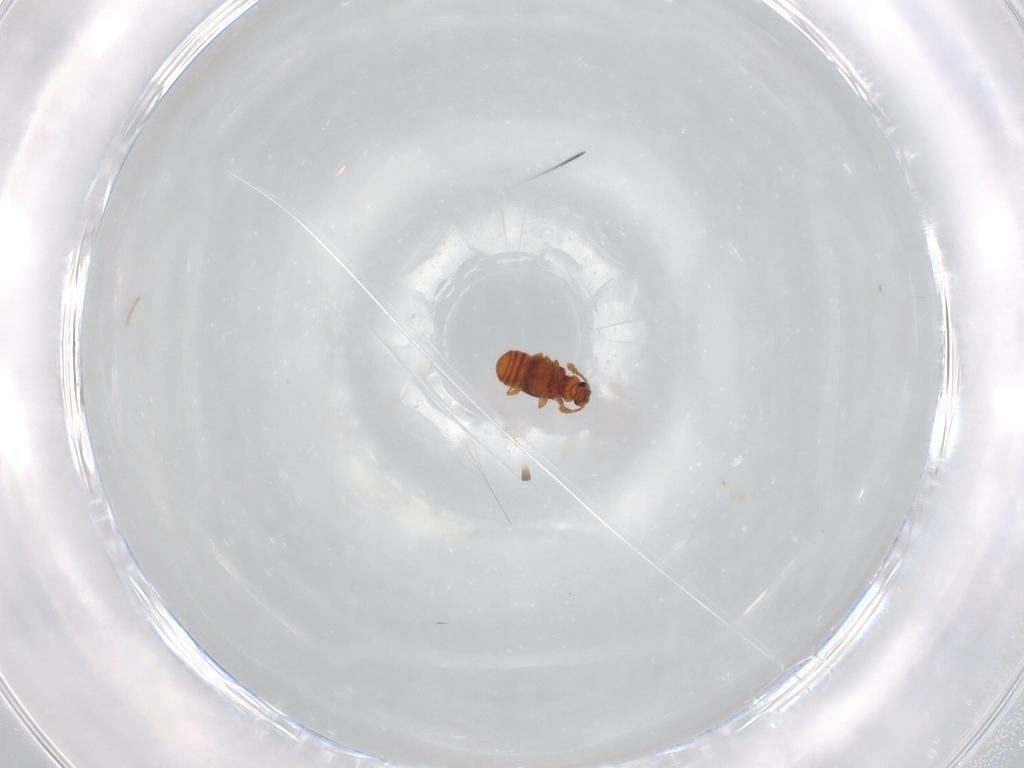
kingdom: Animalia
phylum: Arthropoda
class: Insecta
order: Coleoptera
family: Staphylinidae
